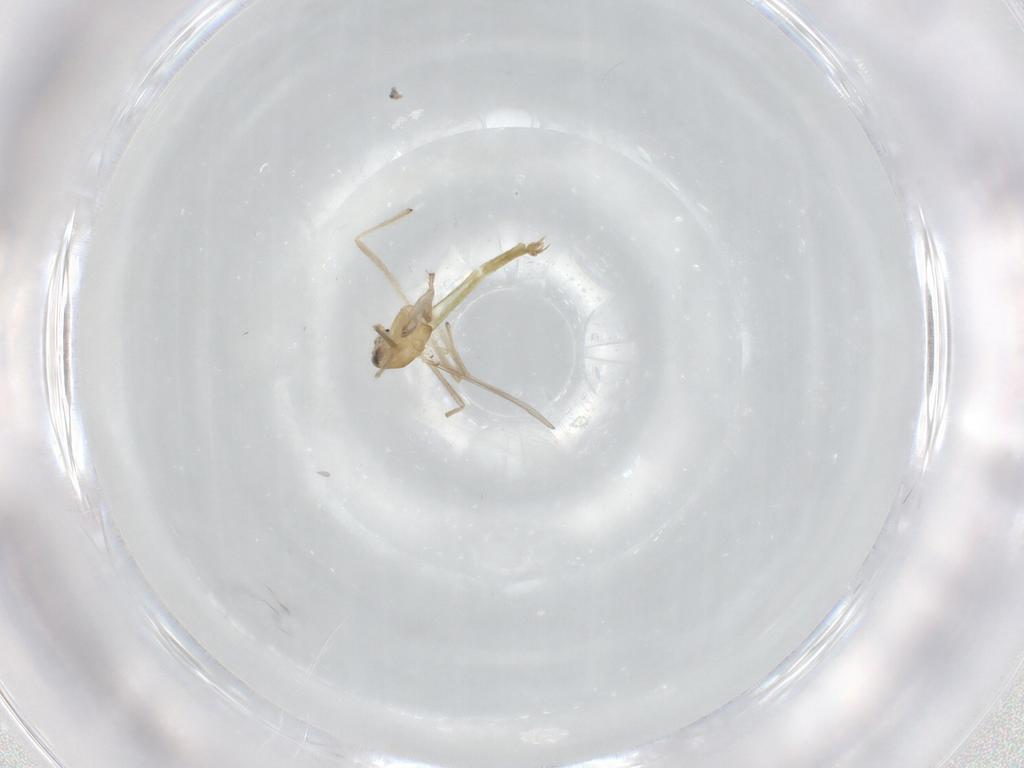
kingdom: Animalia
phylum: Arthropoda
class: Insecta
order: Diptera
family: Chironomidae
